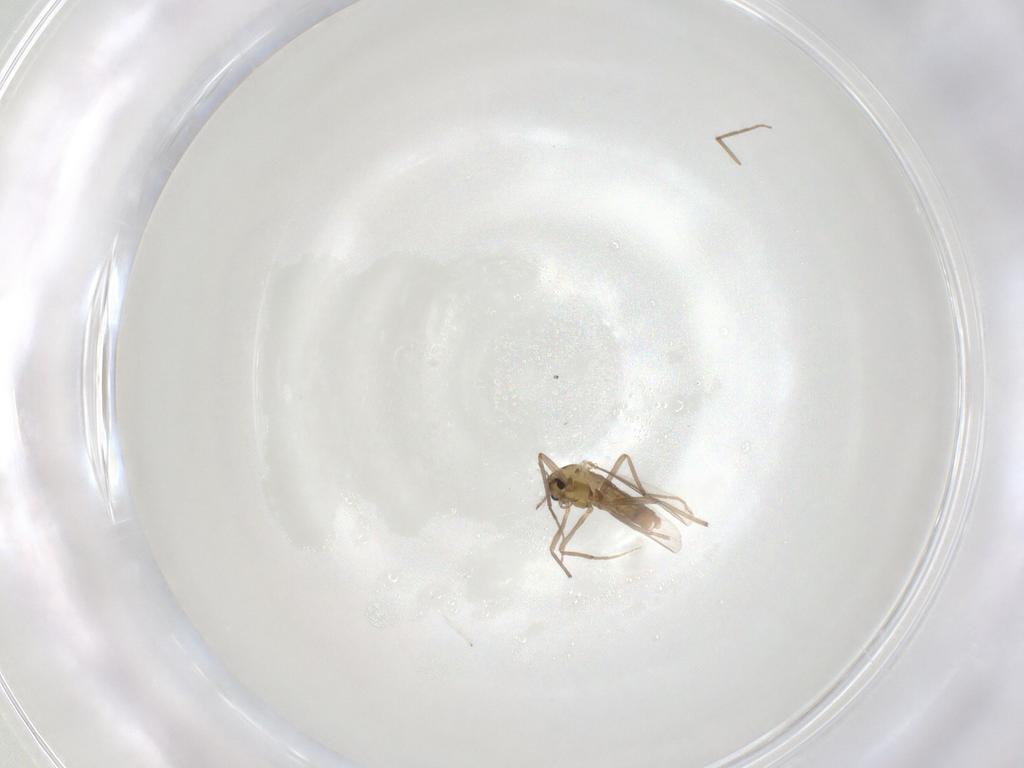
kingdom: Animalia
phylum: Arthropoda
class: Insecta
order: Diptera
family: Chironomidae
